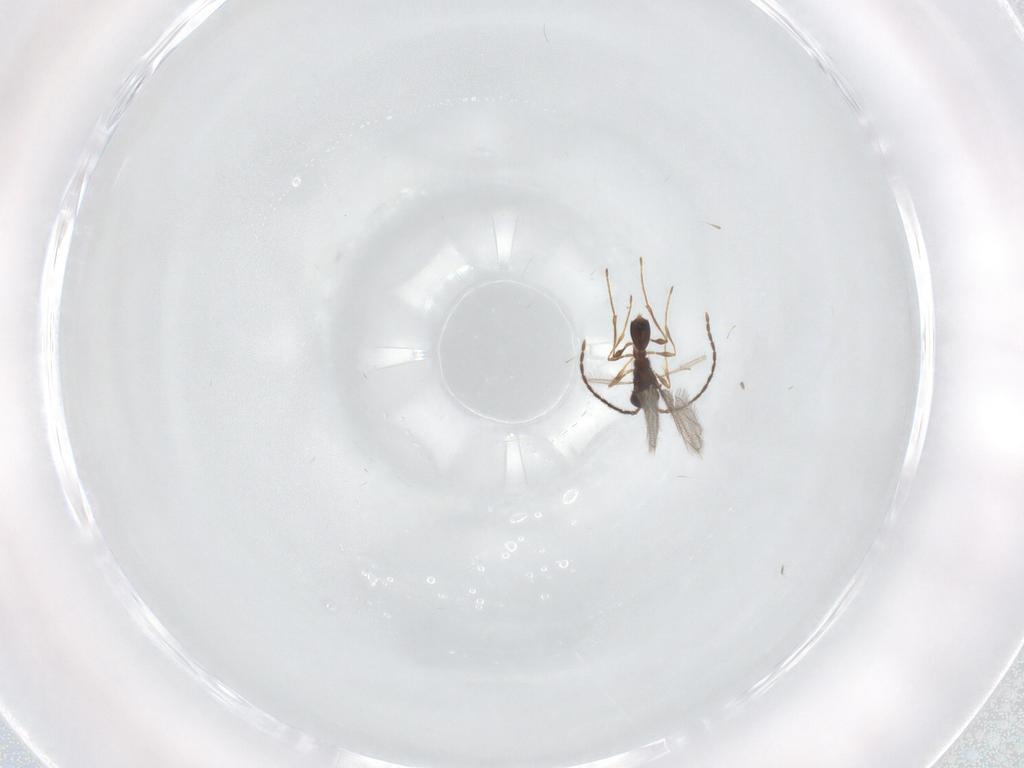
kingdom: Animalia
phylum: Arthropoda
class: Insecta
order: Hymenoptera
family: Diapriidae
